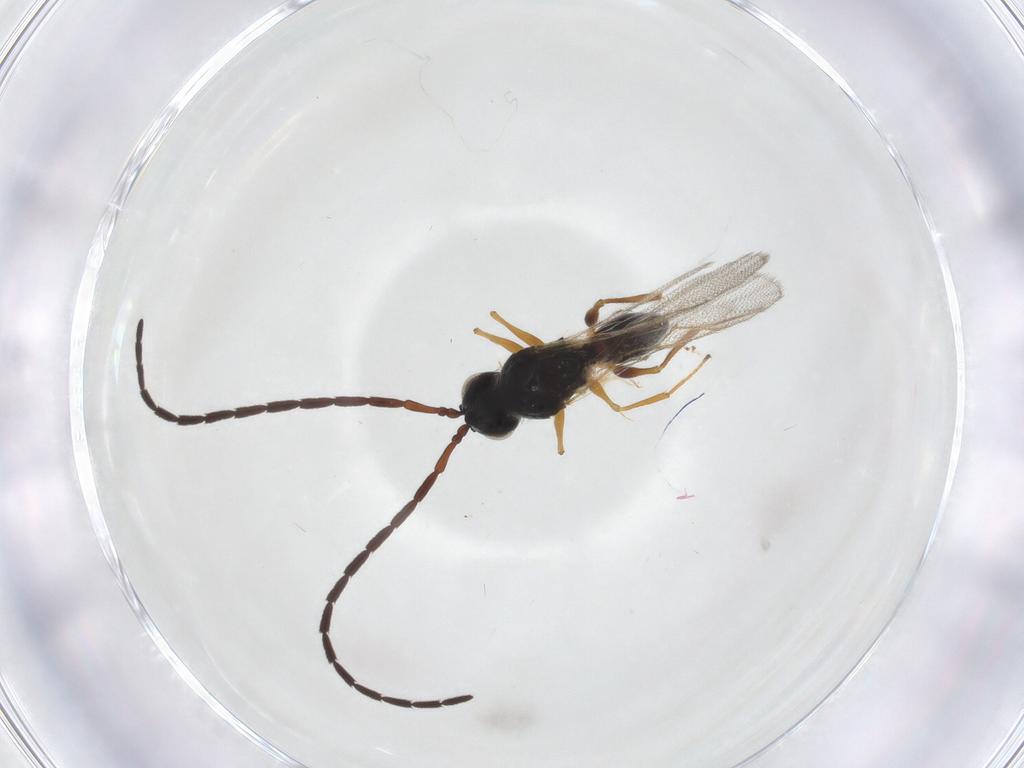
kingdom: Animalia
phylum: Arthropoda
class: Insecta
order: Hymenoptera
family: Figitidae
